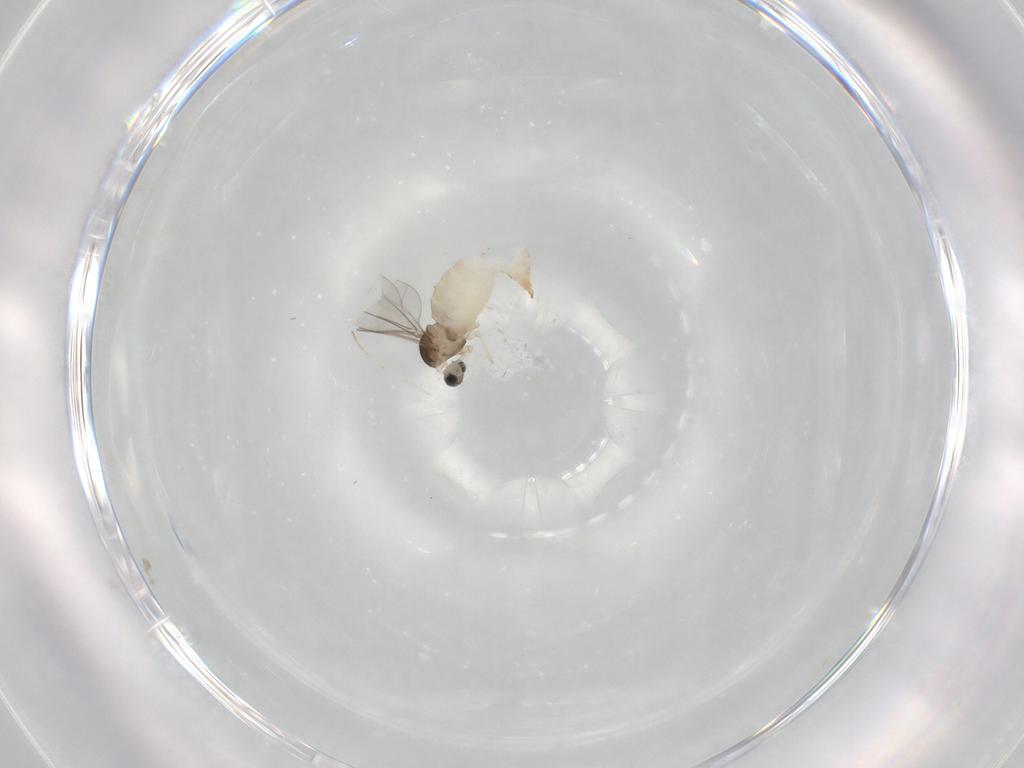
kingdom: Animalia
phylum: Arthropoda
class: Insecta
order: Diptera
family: Cecidomyiidae
